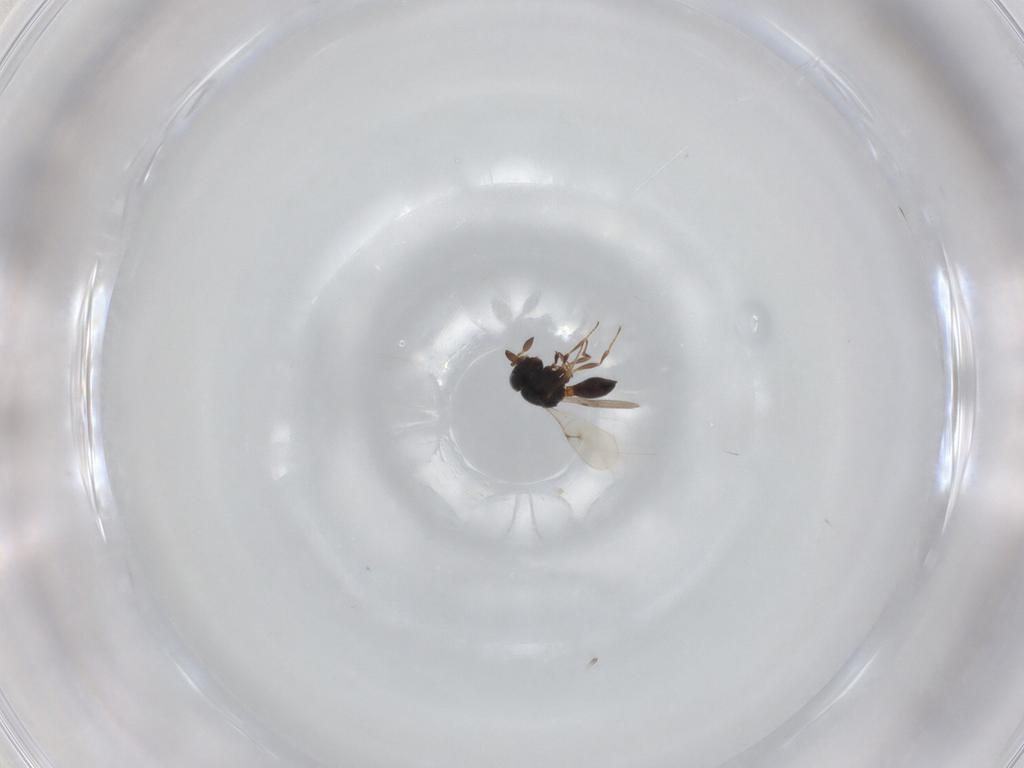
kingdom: Animalia
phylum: Arthropoda
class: Insecta
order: Hymenoptera
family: Scelionidae
